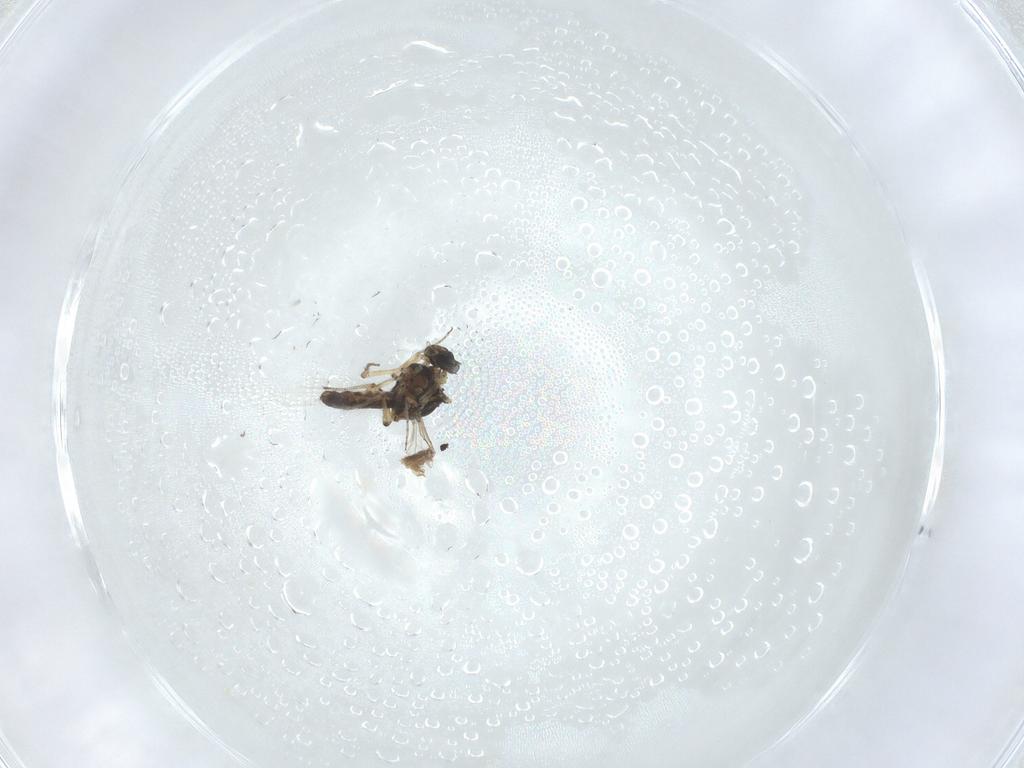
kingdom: Animalia
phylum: Arthropoda
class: Insecta
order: Diptera
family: Ceratopogonidae
